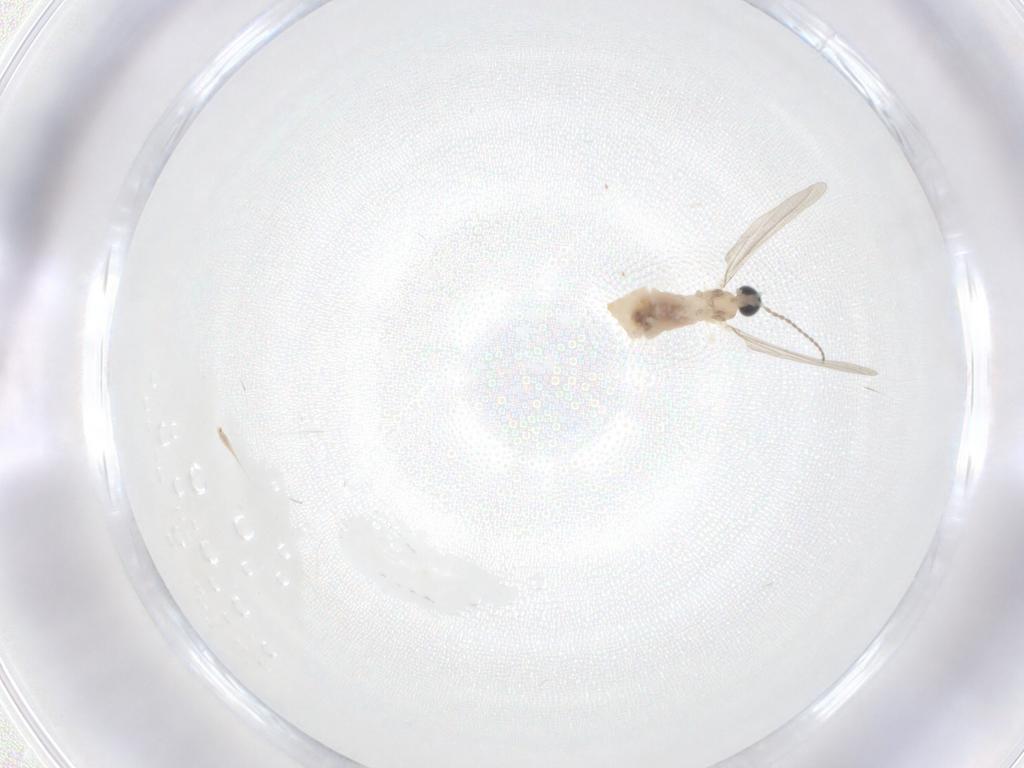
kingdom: Animalia
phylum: Arthropoda
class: Insecta
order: Diptera
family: Cecidomyiidae
